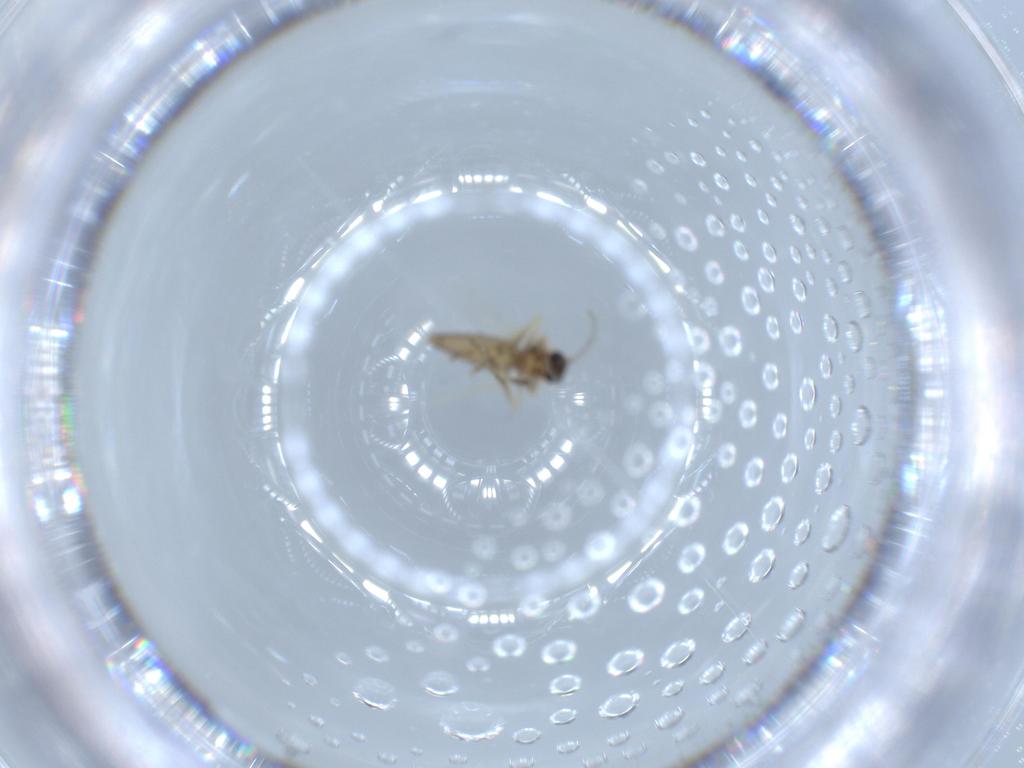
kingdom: Animalia
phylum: Arthropoda
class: Insecta
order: Diptera
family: Ceratopogonidae
